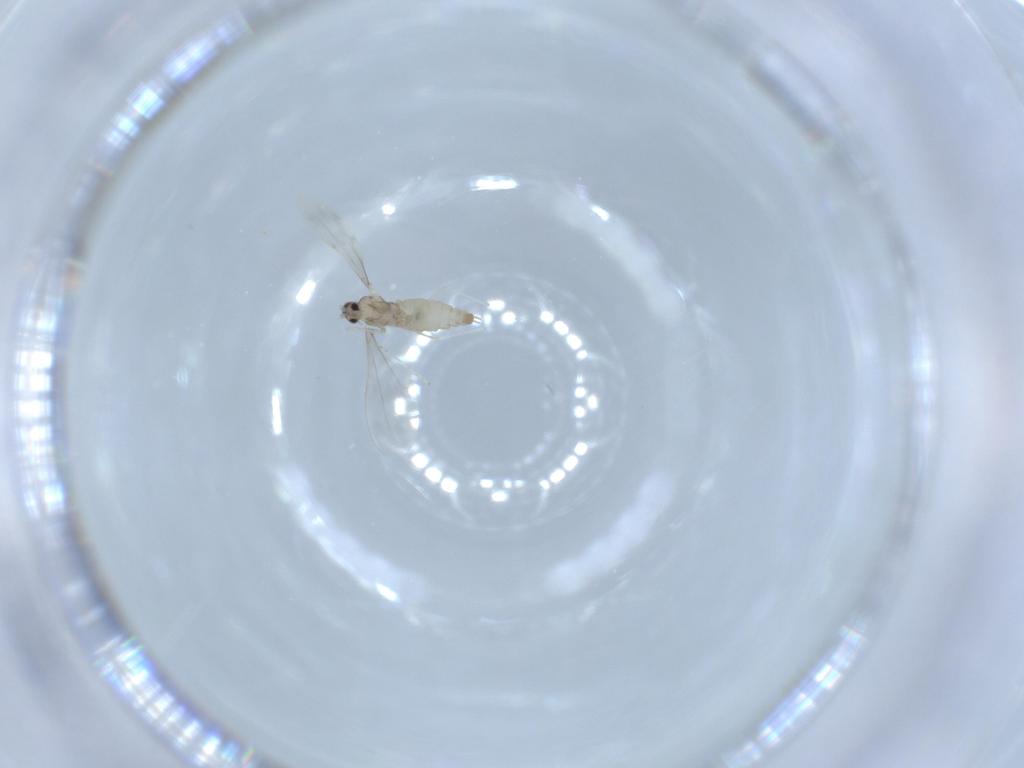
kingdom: Animalia
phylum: Arthropoda
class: Insecta
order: Diptera
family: Cecidomyiidae
